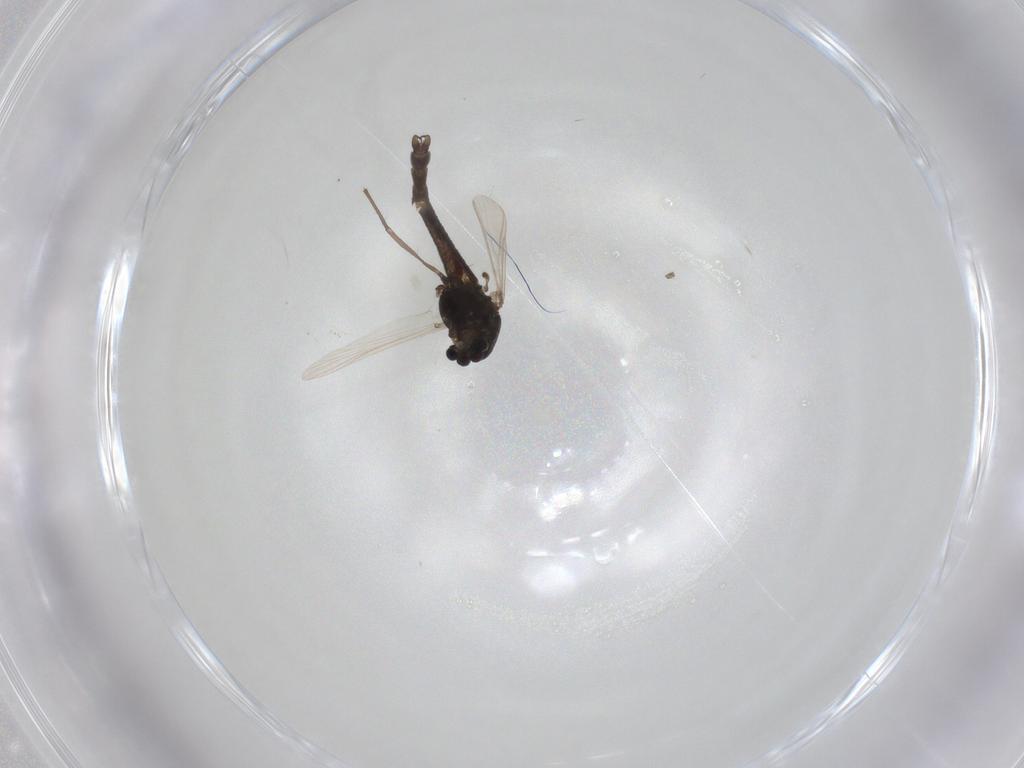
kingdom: Animalia
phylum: Arthropoda
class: Insecta
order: Diptera
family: Chironomidae
